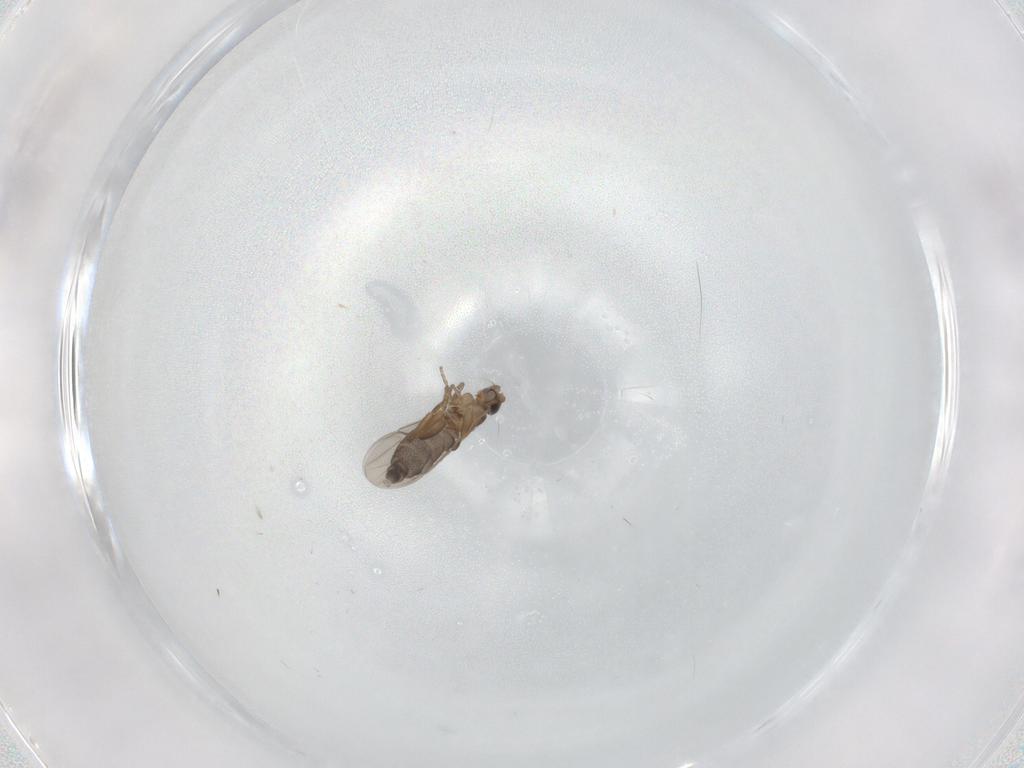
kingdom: Animalia
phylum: Arthropoda
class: Insecta
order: Diptera
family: Phoridae
